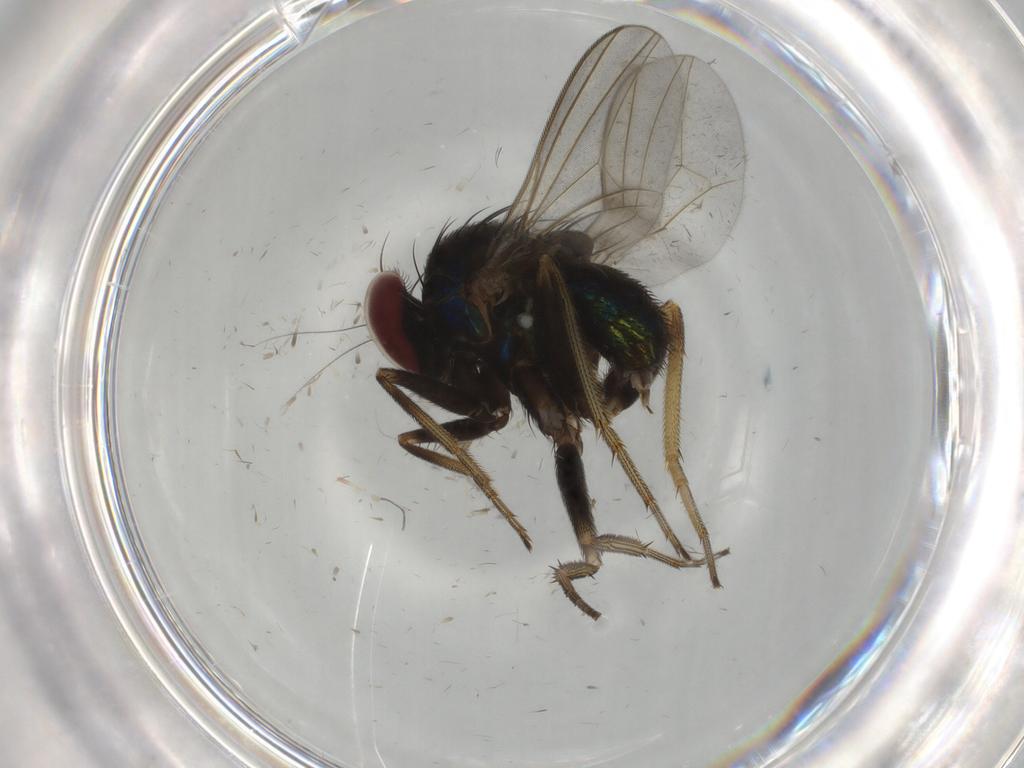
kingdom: Animalia
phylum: Arthropoda
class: Insecta
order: Diptera
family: Dolichopodidae
